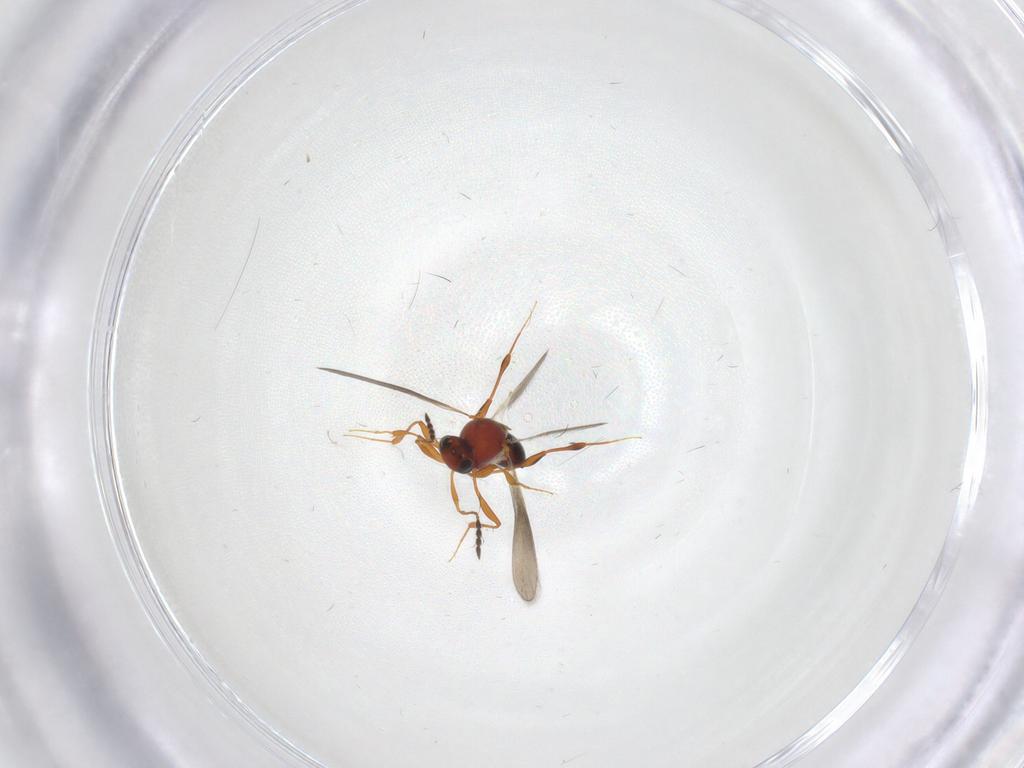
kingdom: Animalia
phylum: Arthropoda
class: Insecta
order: Hymenoptera
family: Platygastridae
